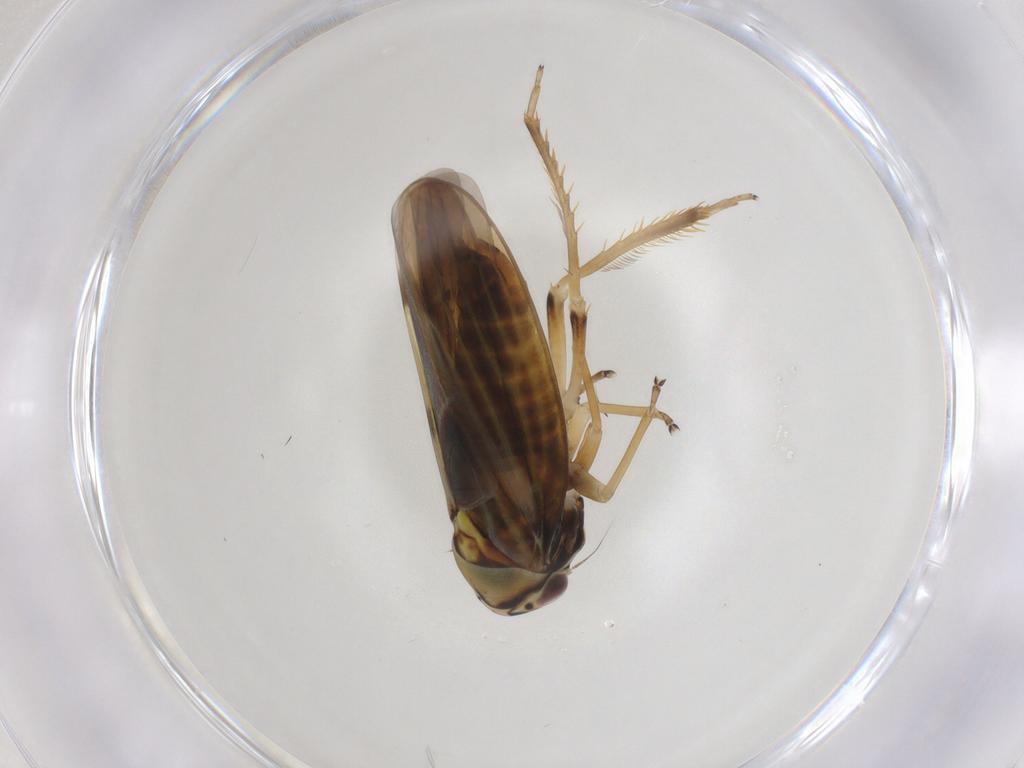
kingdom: Animalia
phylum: Arthropoda
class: Insecta
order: Hemiptera
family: Cicadellidae
